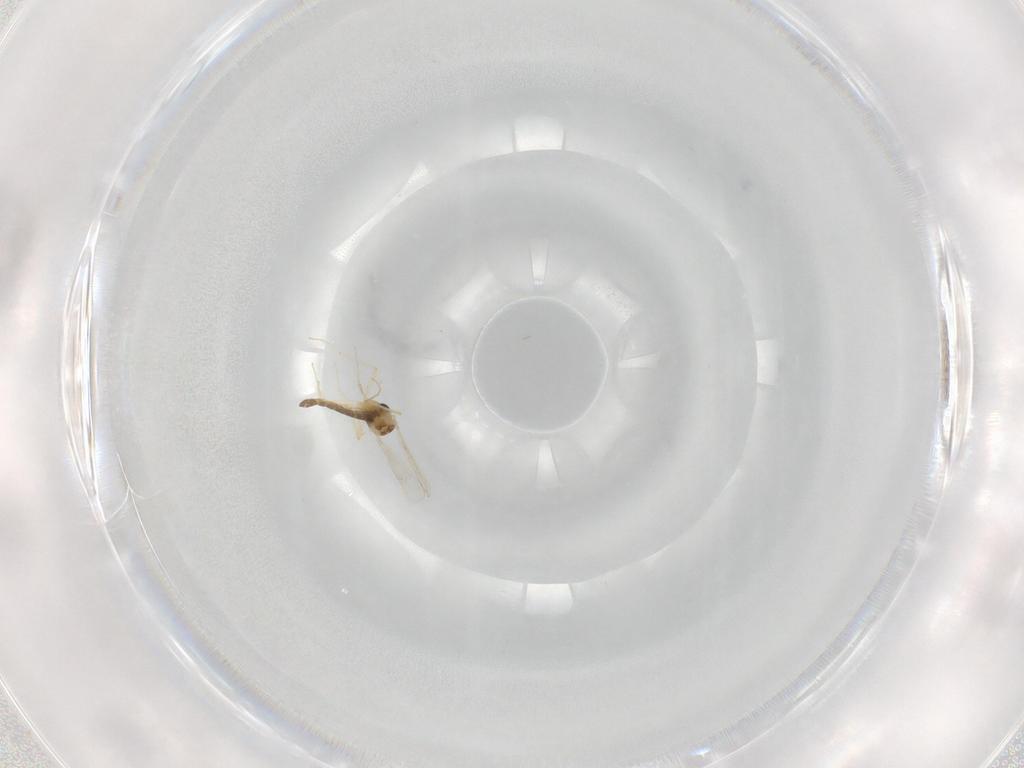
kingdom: Animalia
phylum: Arthropoda
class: Insecta
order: Diptera
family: Chironomidae
